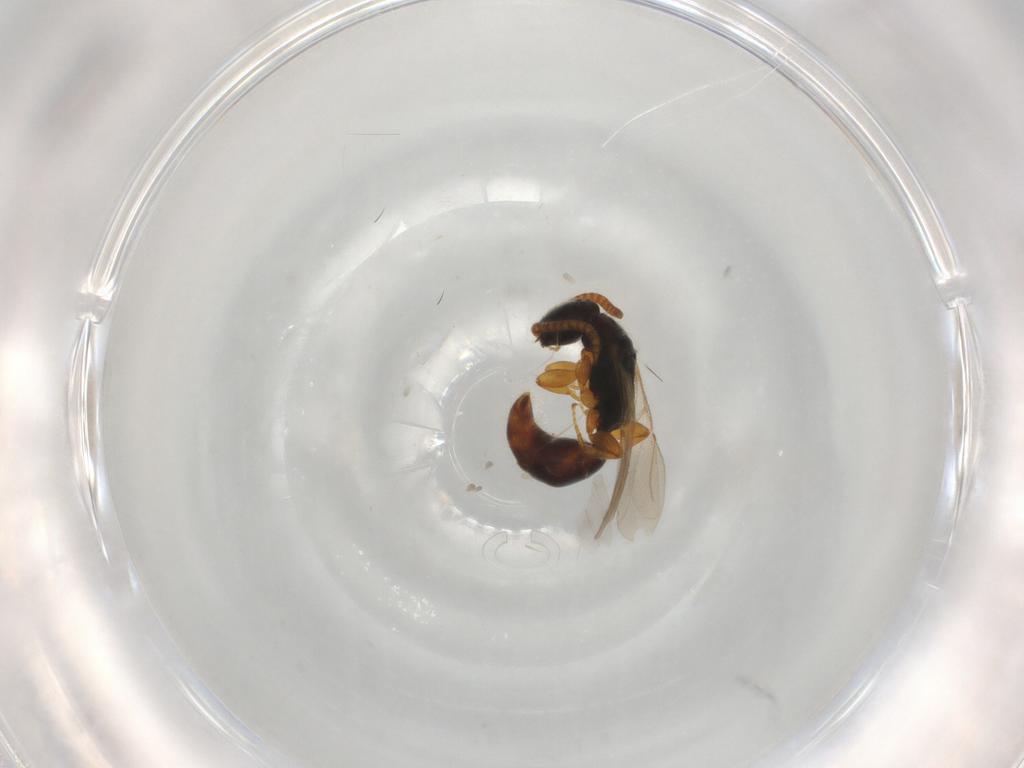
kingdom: Animalia
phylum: Arthropoda
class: Insecta
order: Hymenoptera
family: Bethylidae
